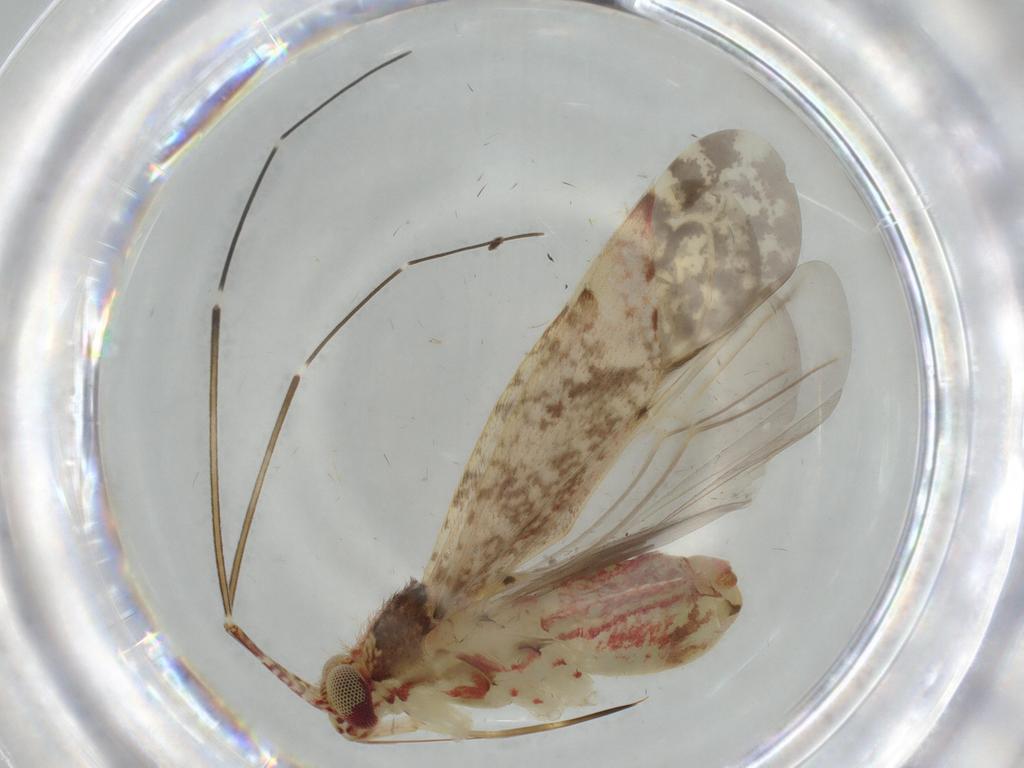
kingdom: Animalia
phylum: Arthropoda
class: Insecta
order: Hemiptera
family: Miridae
